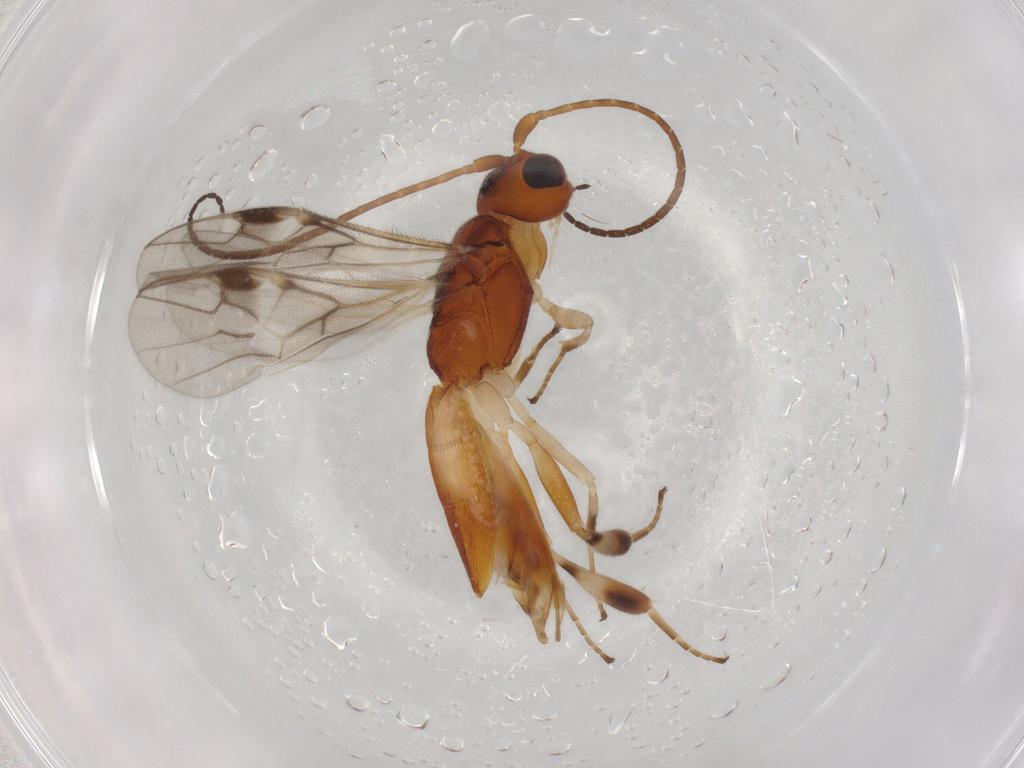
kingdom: Animalia
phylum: Arthropoda
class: Insecta
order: Hymenoptera
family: Braconidae
